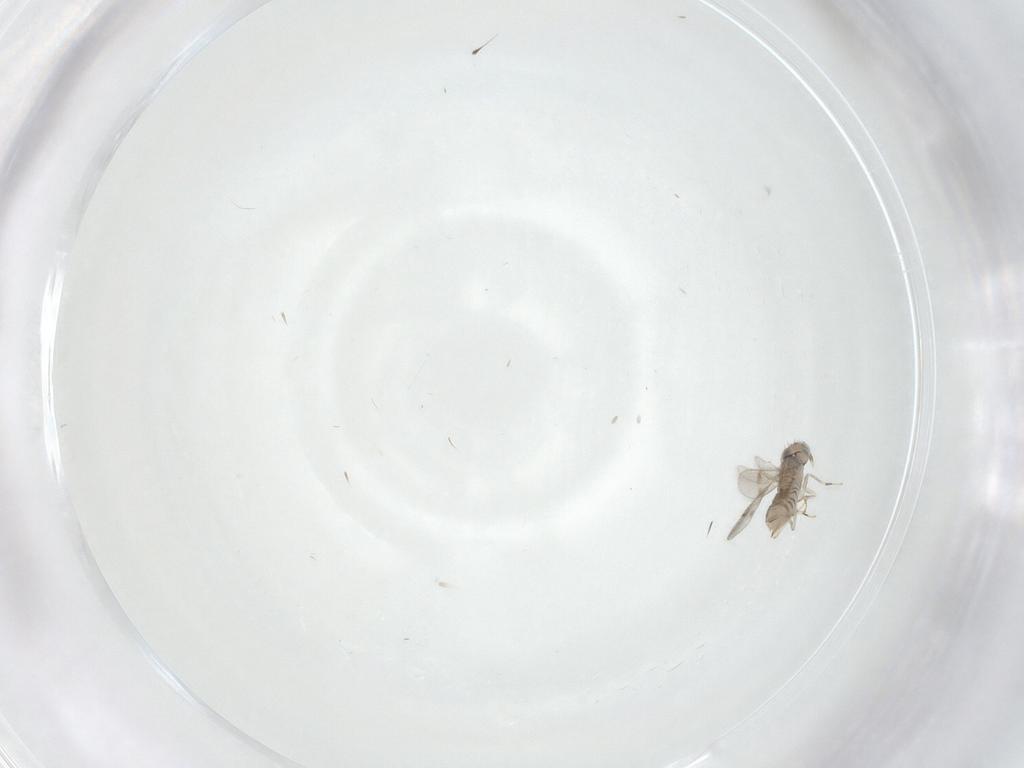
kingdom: Animalia
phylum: Arthropoda
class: Insecta
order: Hymenoptera
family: Aphelinidae
